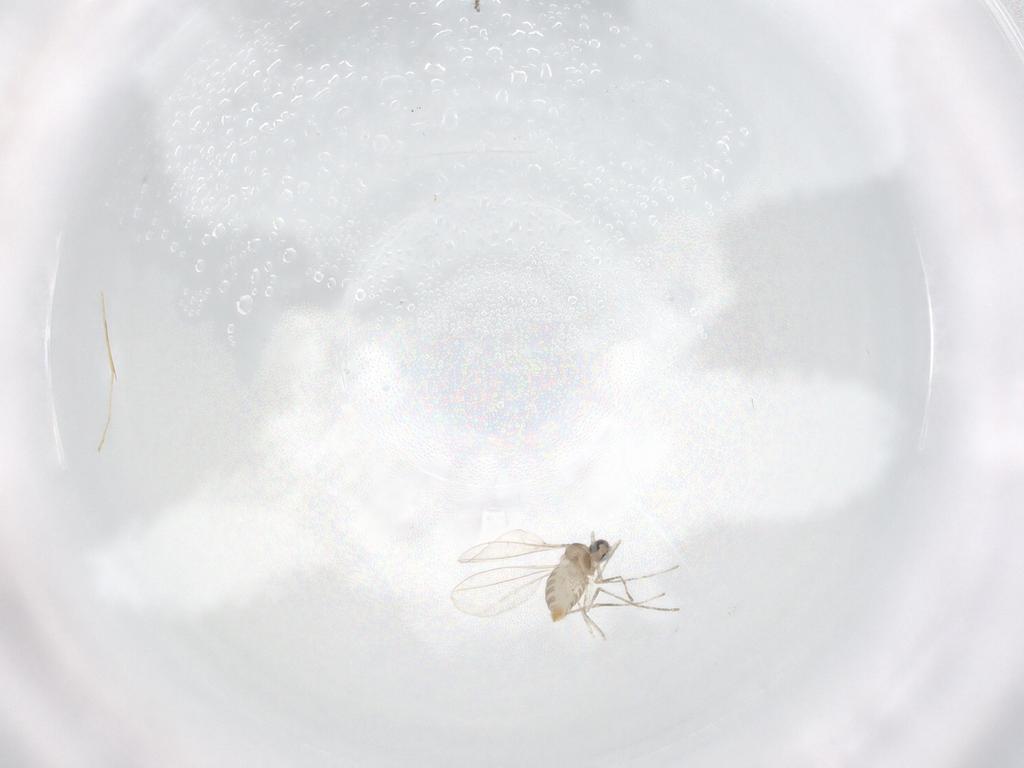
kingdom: Animalia
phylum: Arthropoda
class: Insecta
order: Diptera
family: Cecidomyiidae
